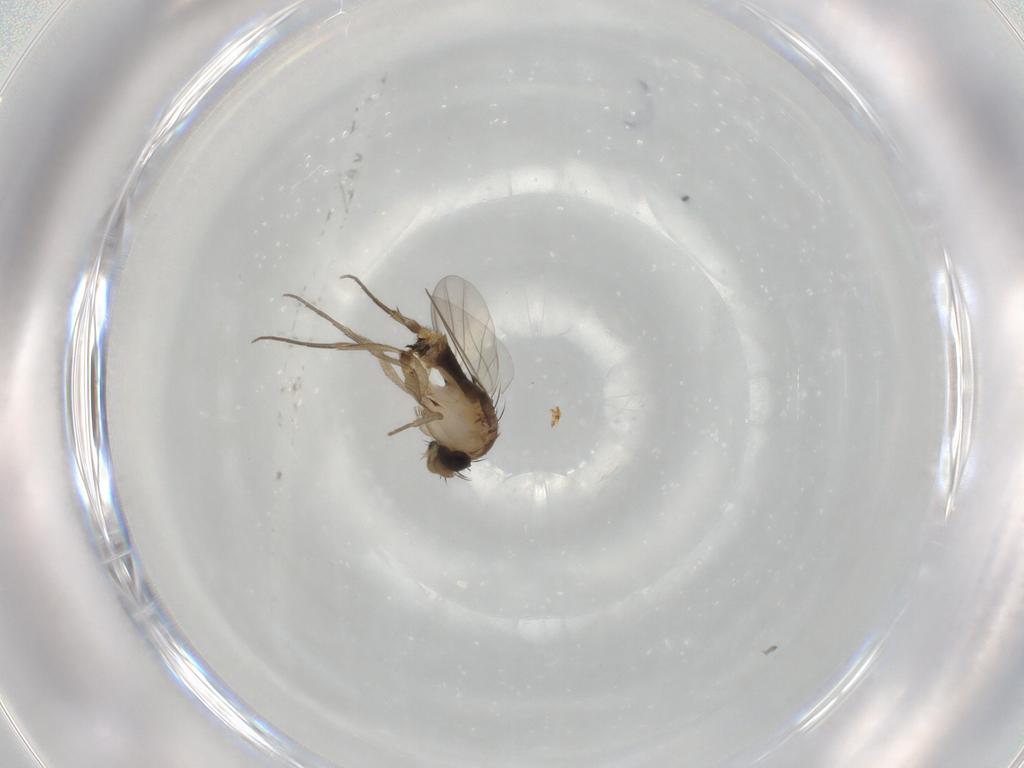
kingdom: Animalia
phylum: Arthropoda
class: Insecta
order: Diptera
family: Phoridae
